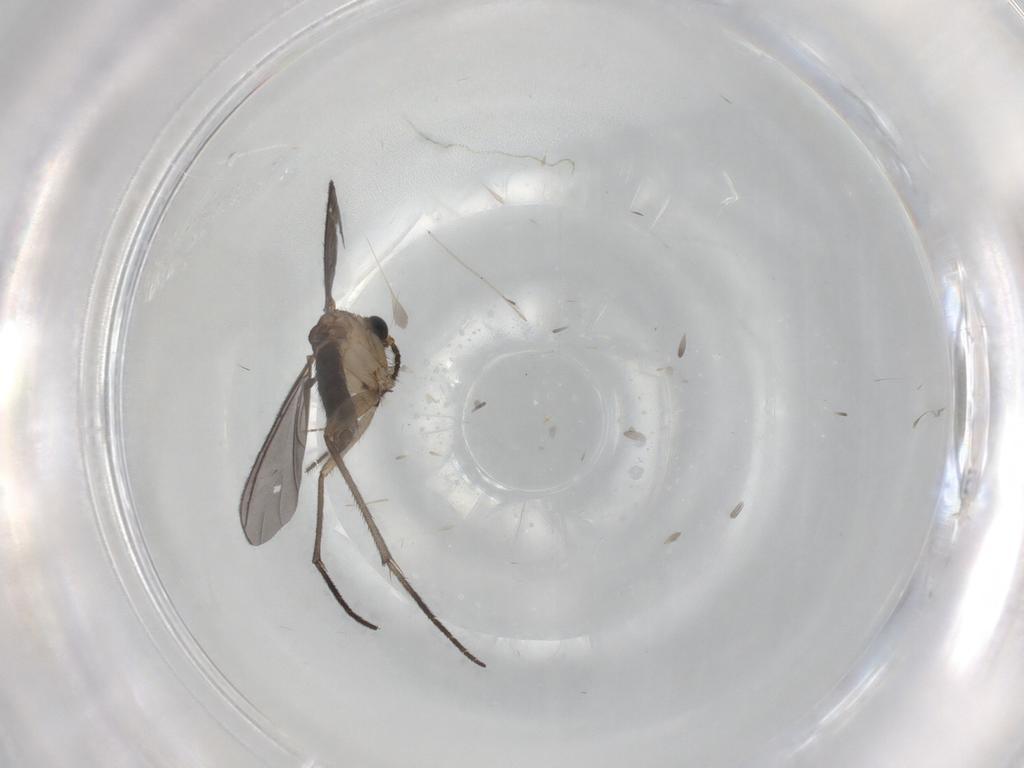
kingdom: Animalia
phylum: Arthropoda
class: Insecta
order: Diptera
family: Cecidomyiidae
